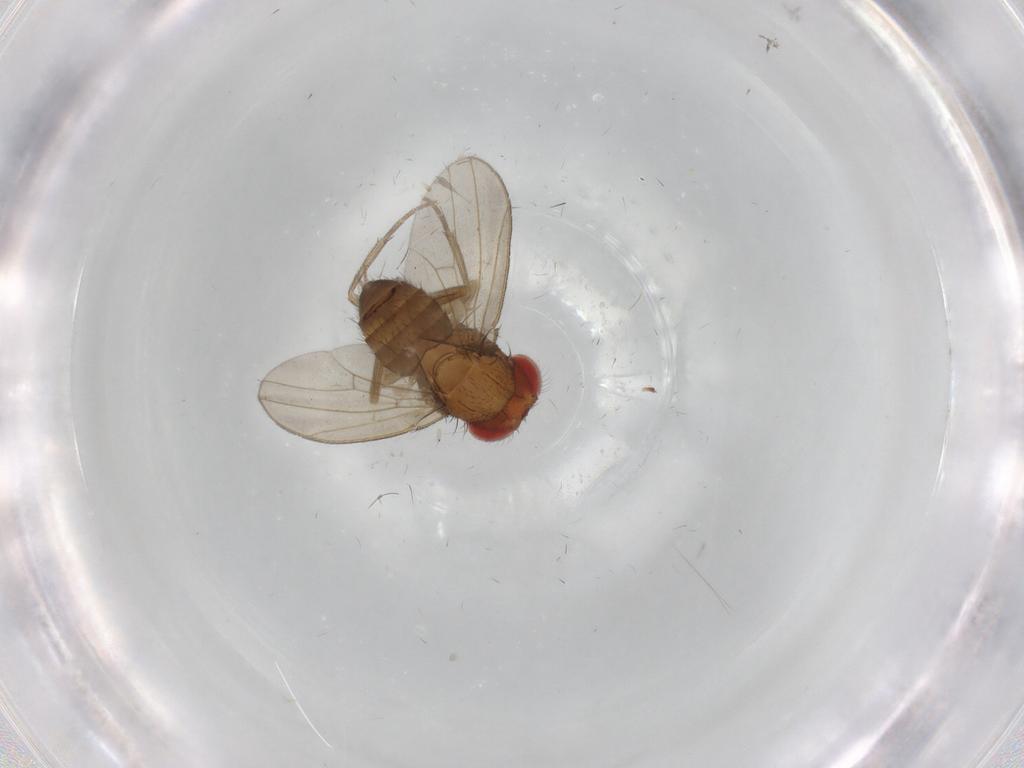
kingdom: Animalia
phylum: Arthropoda
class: Insecta
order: Diptera
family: Drosophilidae
